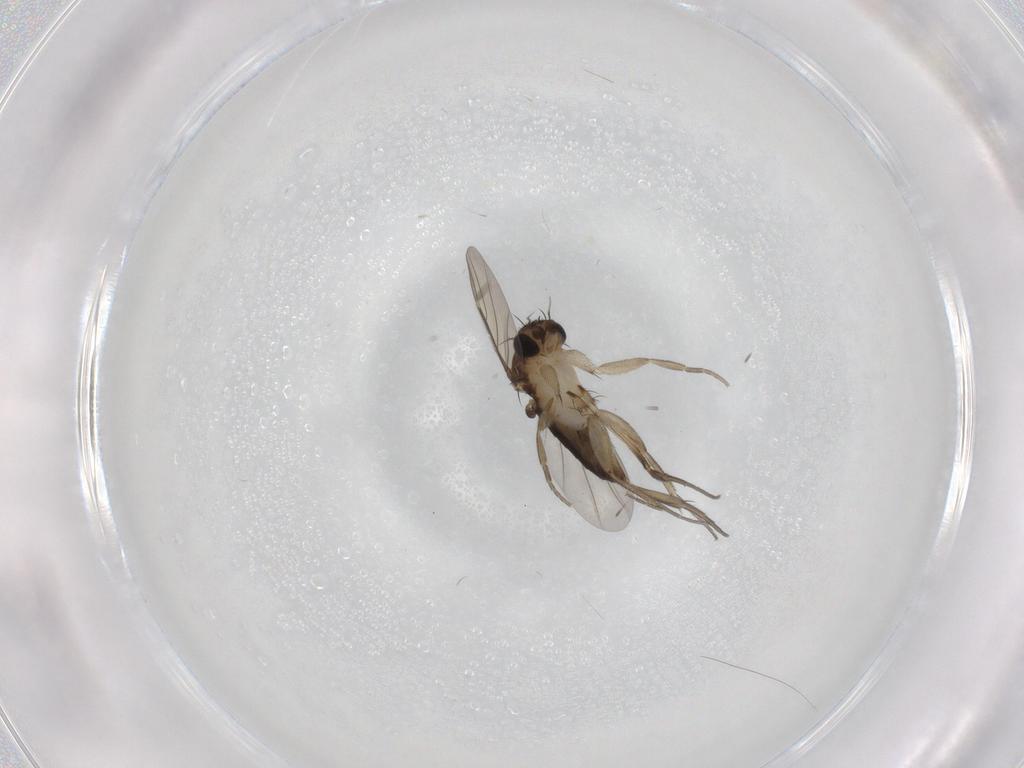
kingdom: Animalia
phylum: Arthropoda
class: Insecta
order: Diptera
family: Phoridae
